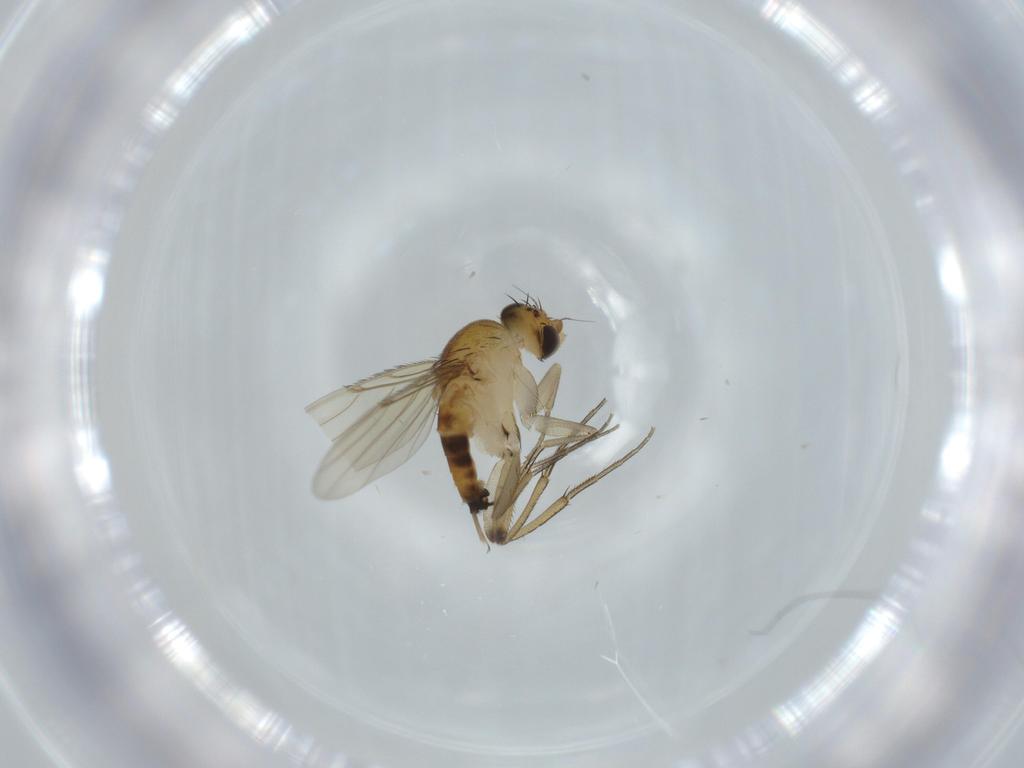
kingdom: Animalia
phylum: Arthropoda
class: Insecta
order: Diptera
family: Phoridae
